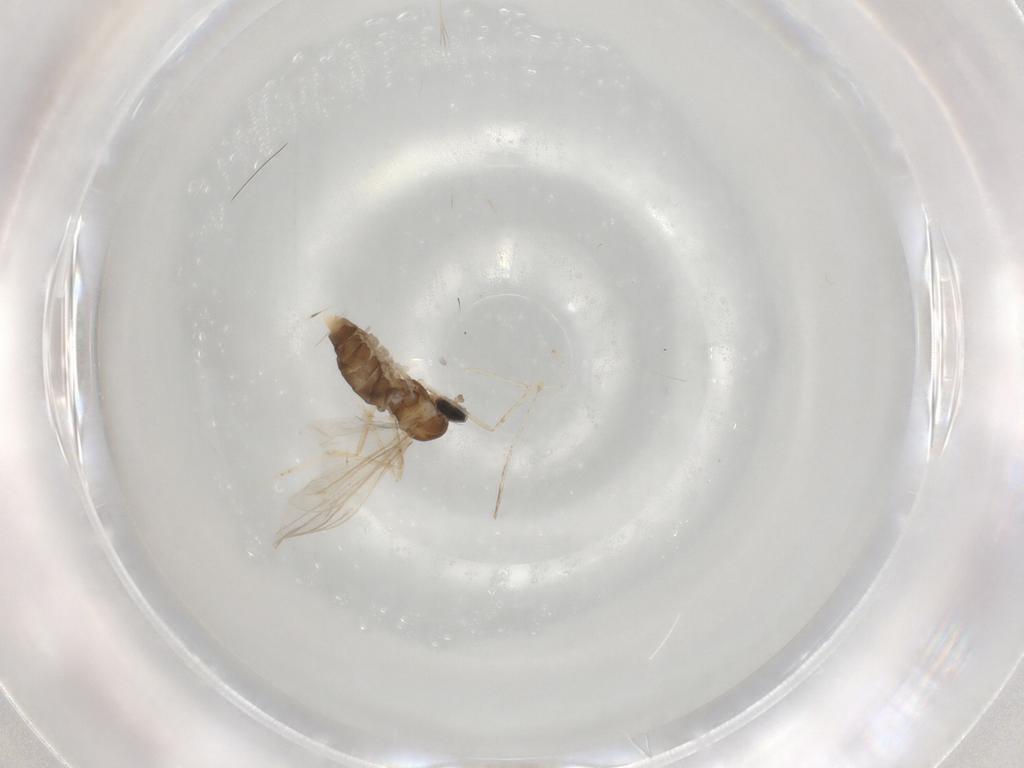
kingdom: Animalia
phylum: Arthropoda
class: Insecta
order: Diptera
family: Cecidomyiidae
